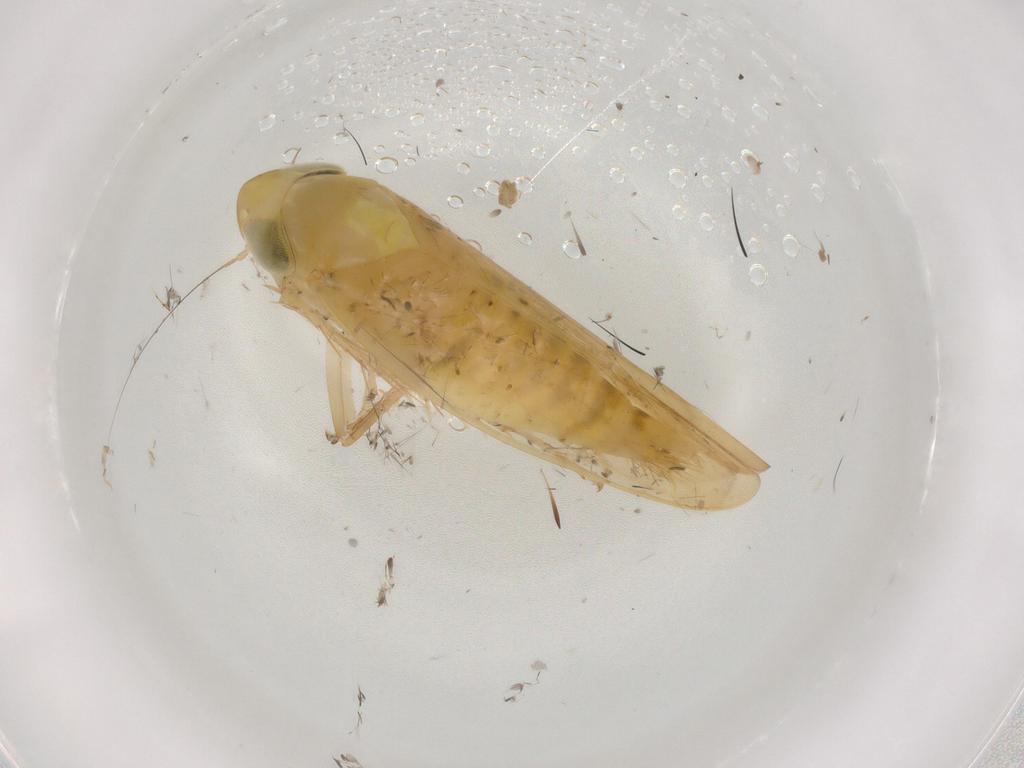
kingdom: Animalia
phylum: Arthropoda
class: Insecta
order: Hemiptera
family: Cicadellidae
